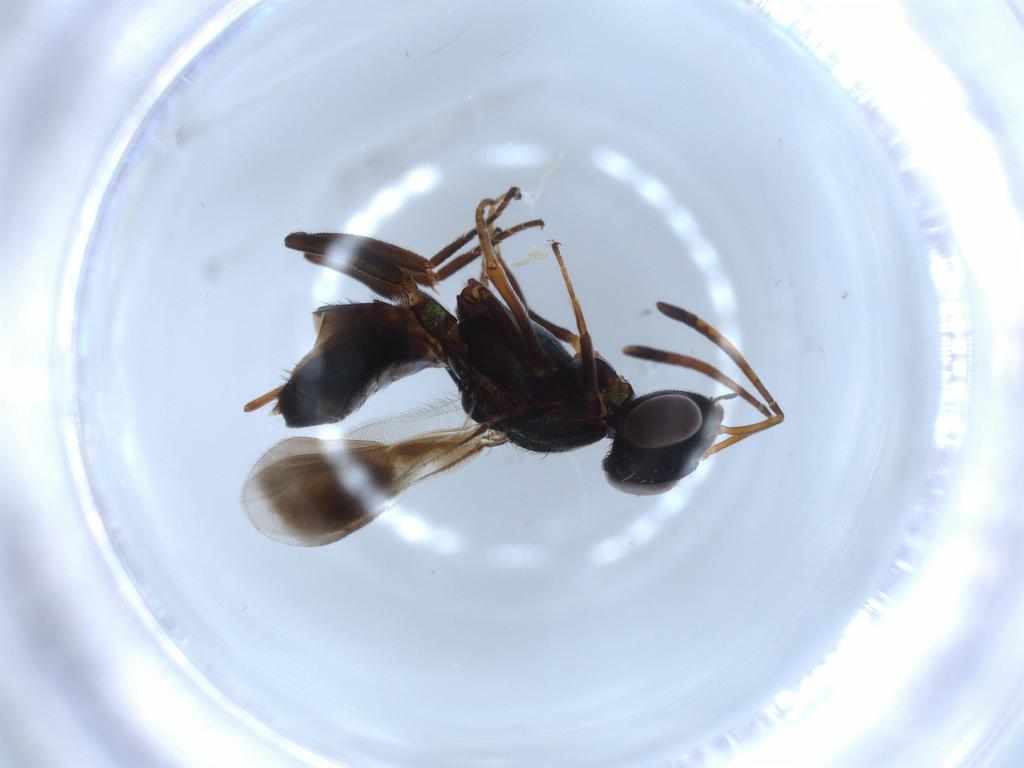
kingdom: Animalia
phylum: Arthropoda
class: Insecta
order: Hymenoptera
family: Eupelmidae
